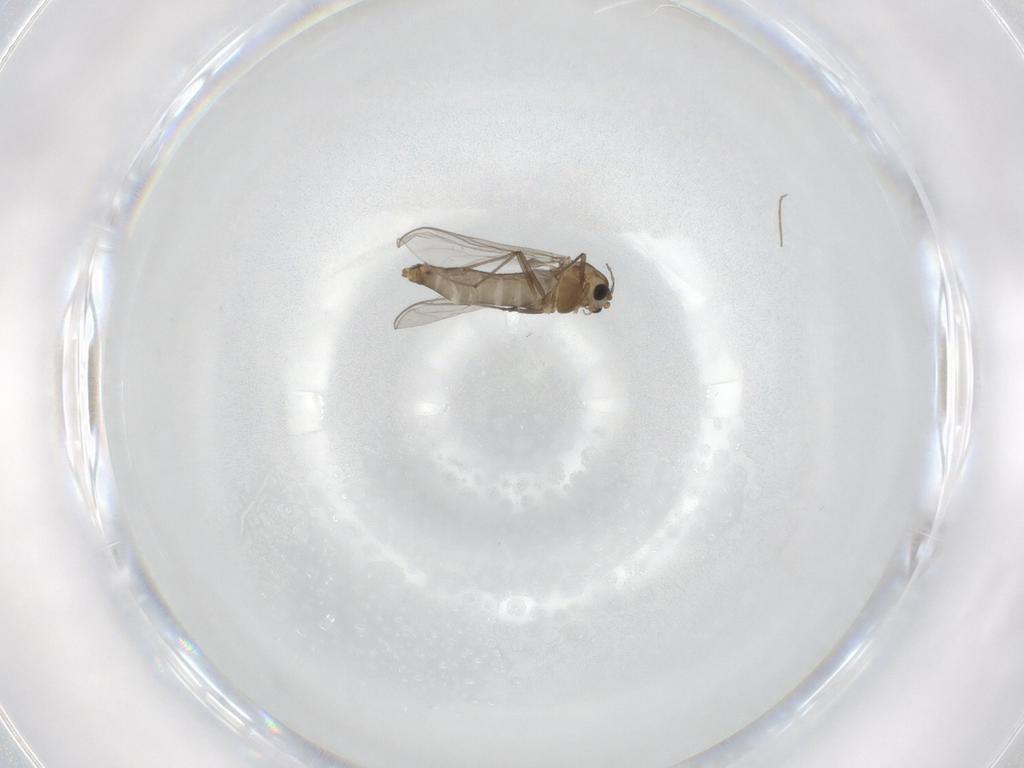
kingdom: Animalia
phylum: Arthropoda
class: Insecta
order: Diptera
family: Chironomidae
